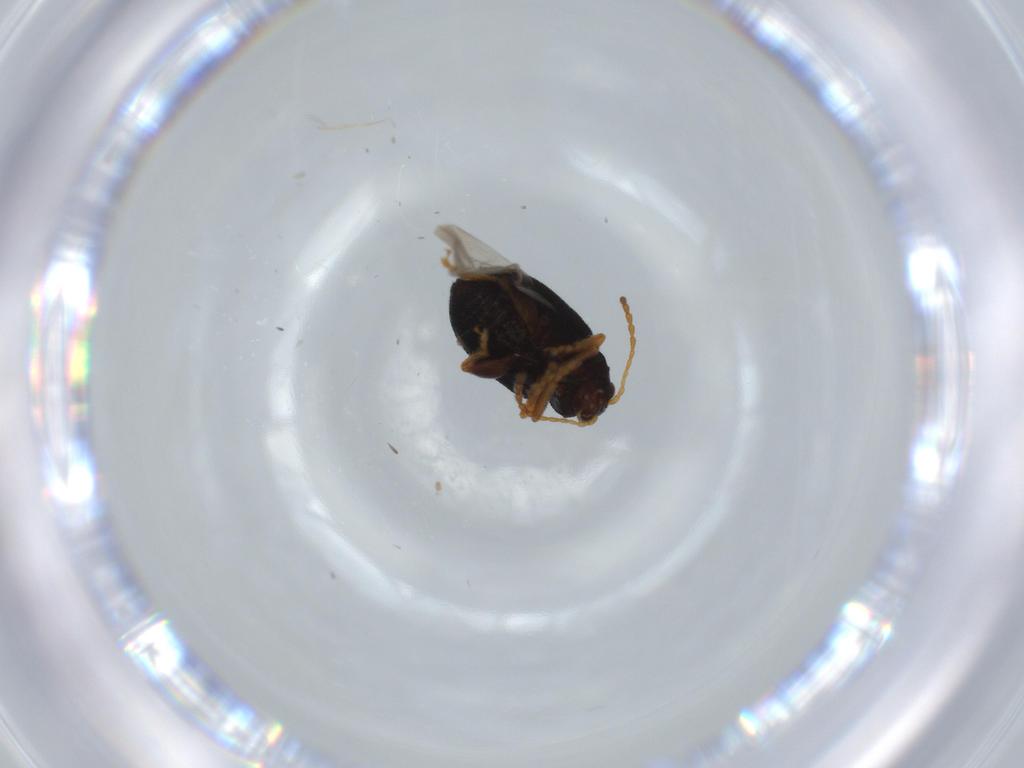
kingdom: Animalia
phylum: Arthropoda
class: Insecta
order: Coleoptera
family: Chrysomelidae
